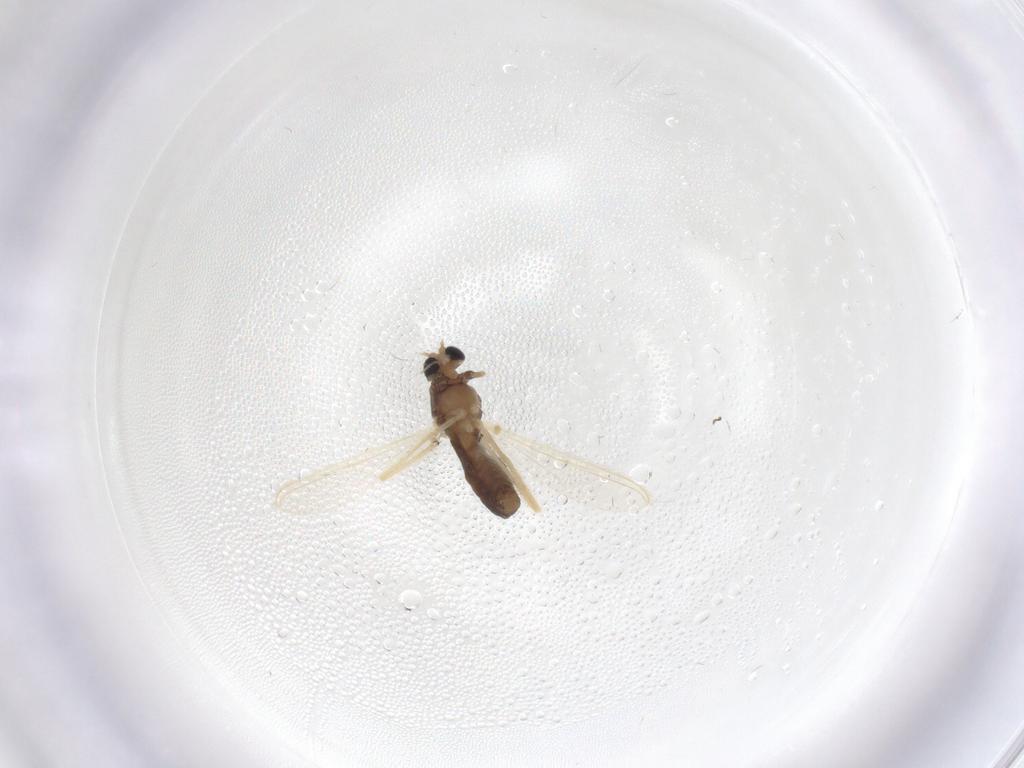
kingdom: Animalia
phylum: Arthropoda
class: Insecta
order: Diptera
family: Chironomidae
